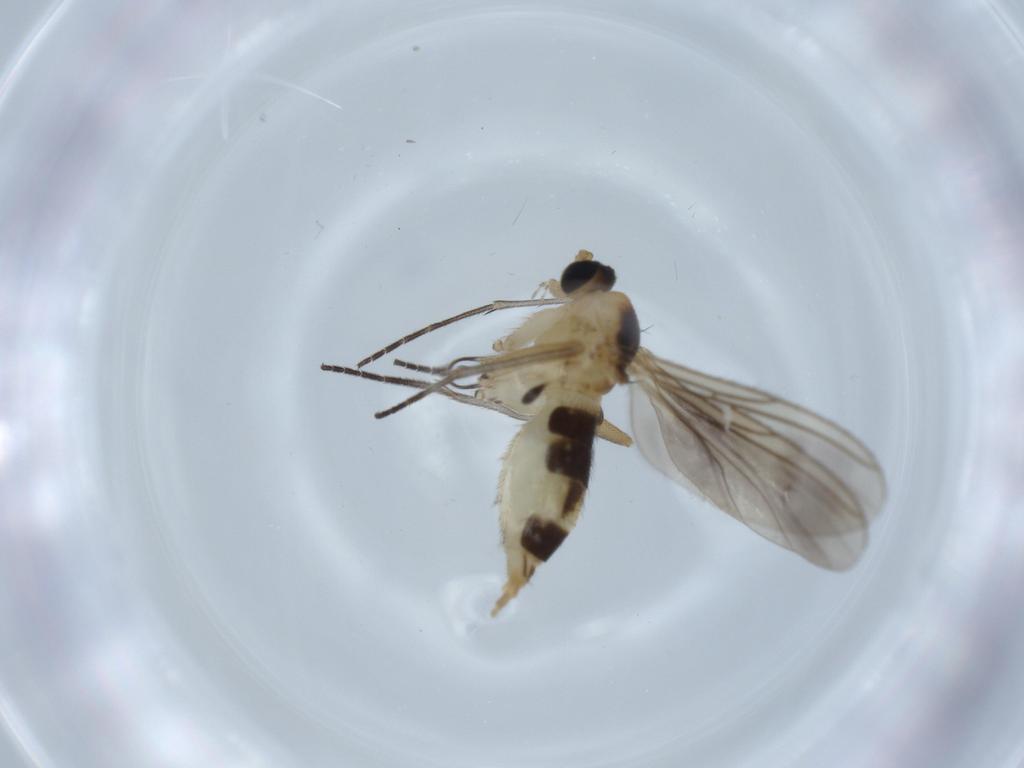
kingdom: Animalia
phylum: Arthropoda
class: Insecta
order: Diptera
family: Sciaridae
